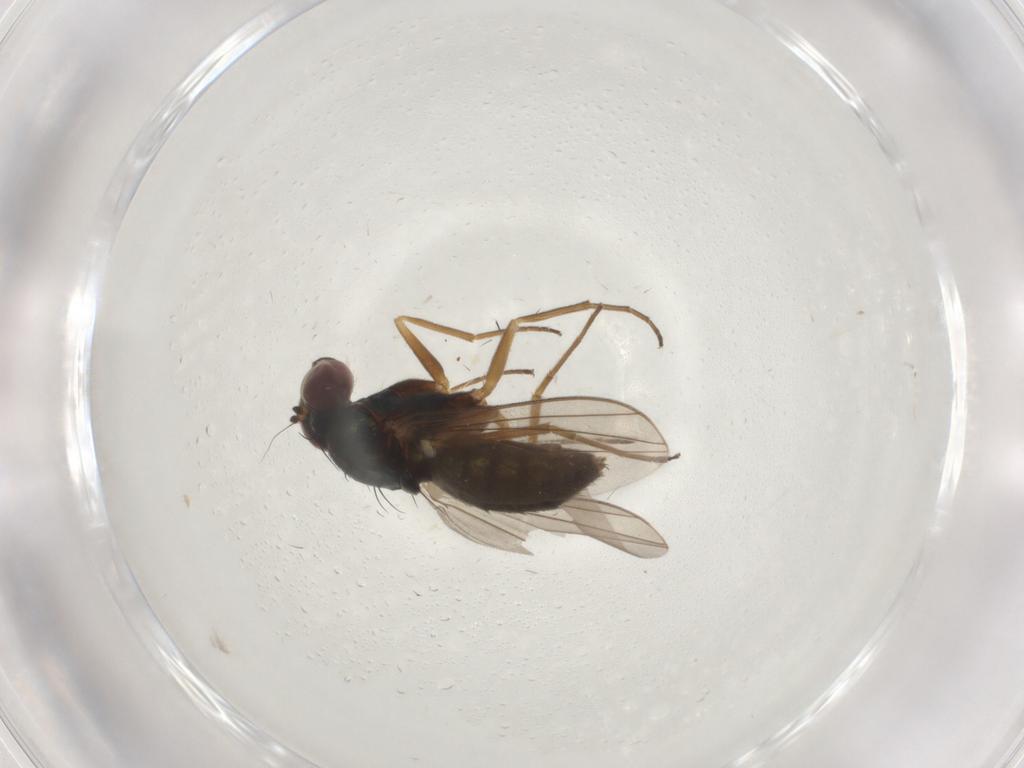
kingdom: Animalia
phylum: Arthropoda
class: Insecta
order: Diptera
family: Dolichopodidae
